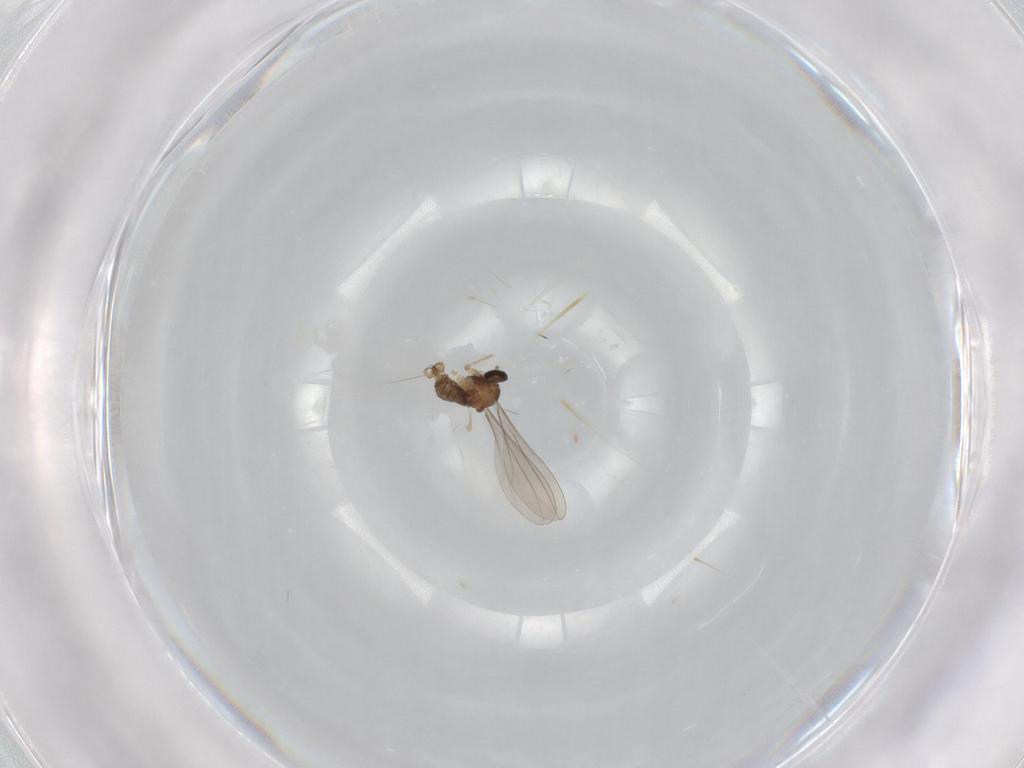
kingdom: Animalia
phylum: Arthropoda
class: Insecta
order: Diptera
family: Cecidomyiidae
